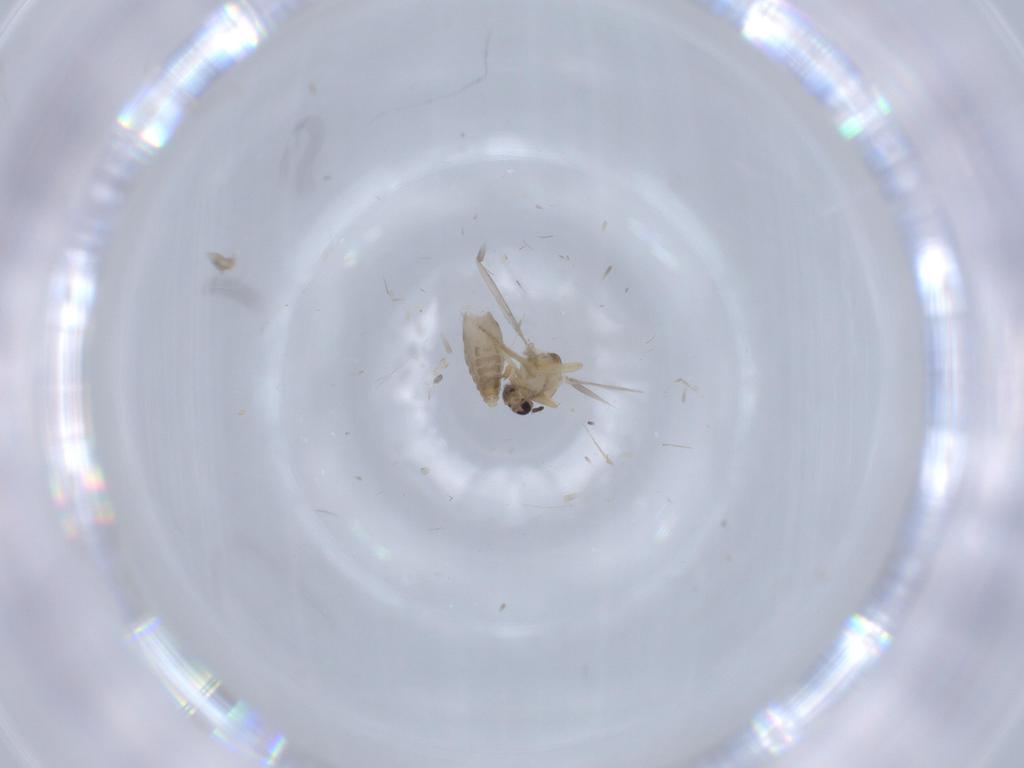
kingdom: Animalia
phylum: Arthropoda
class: Insecta
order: Diptera
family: Ceratopogonidae
